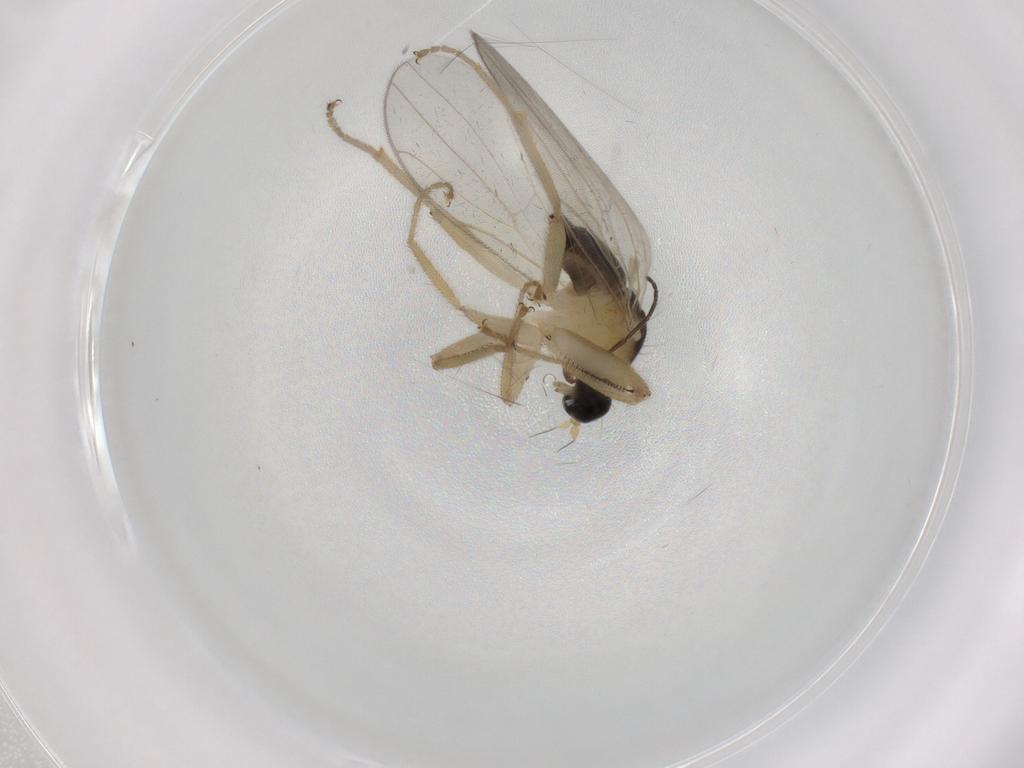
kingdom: Animalia
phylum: Arthropoda
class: Insecta
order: Diptera
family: Hybotidae
